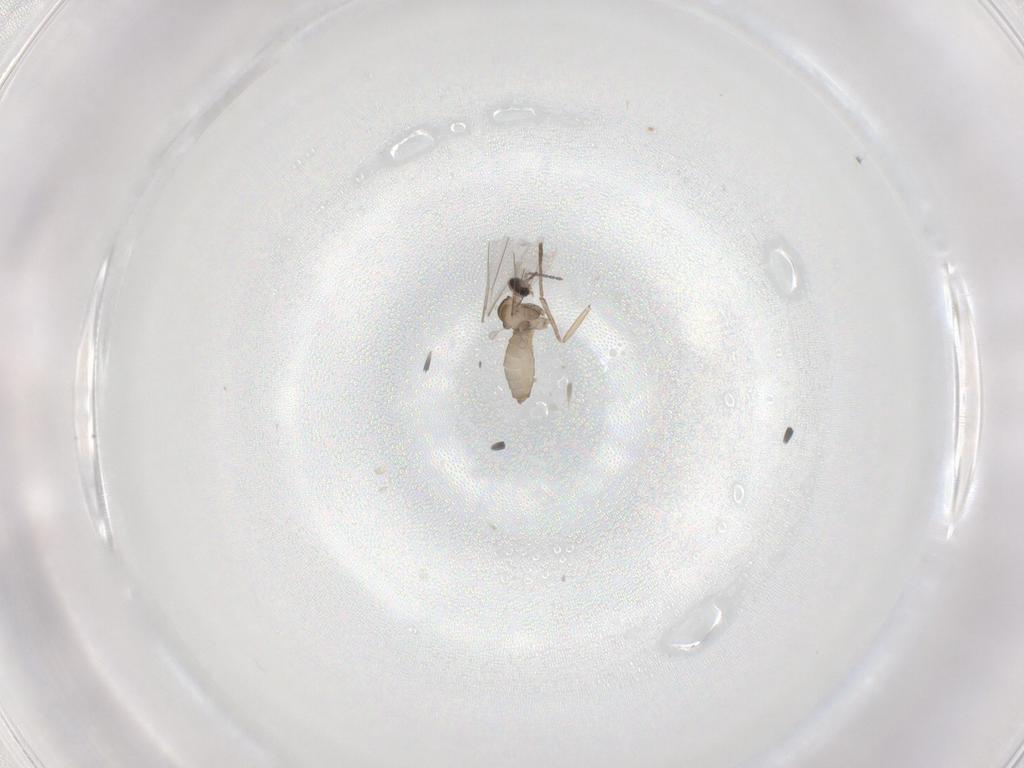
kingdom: Animalia
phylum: Arthropoda
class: Insecta
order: Diptera
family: Cecidomyiidae
